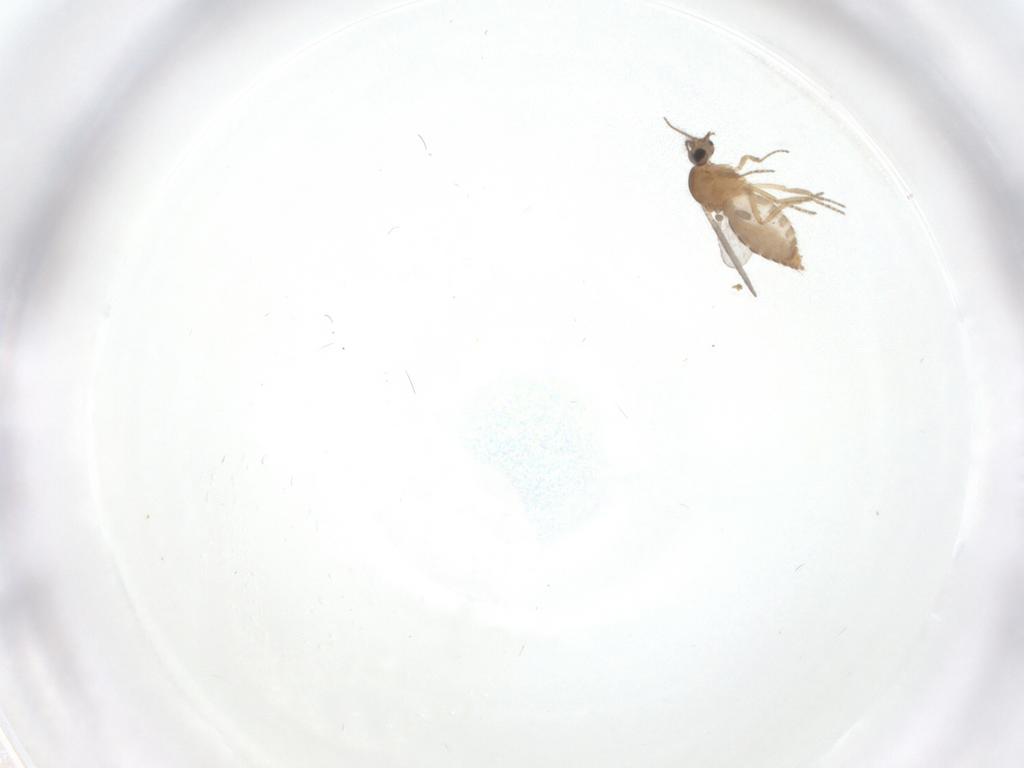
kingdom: Animalia
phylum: Arthropoda
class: Insecta
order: Diptera
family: Ceratopogonidae
